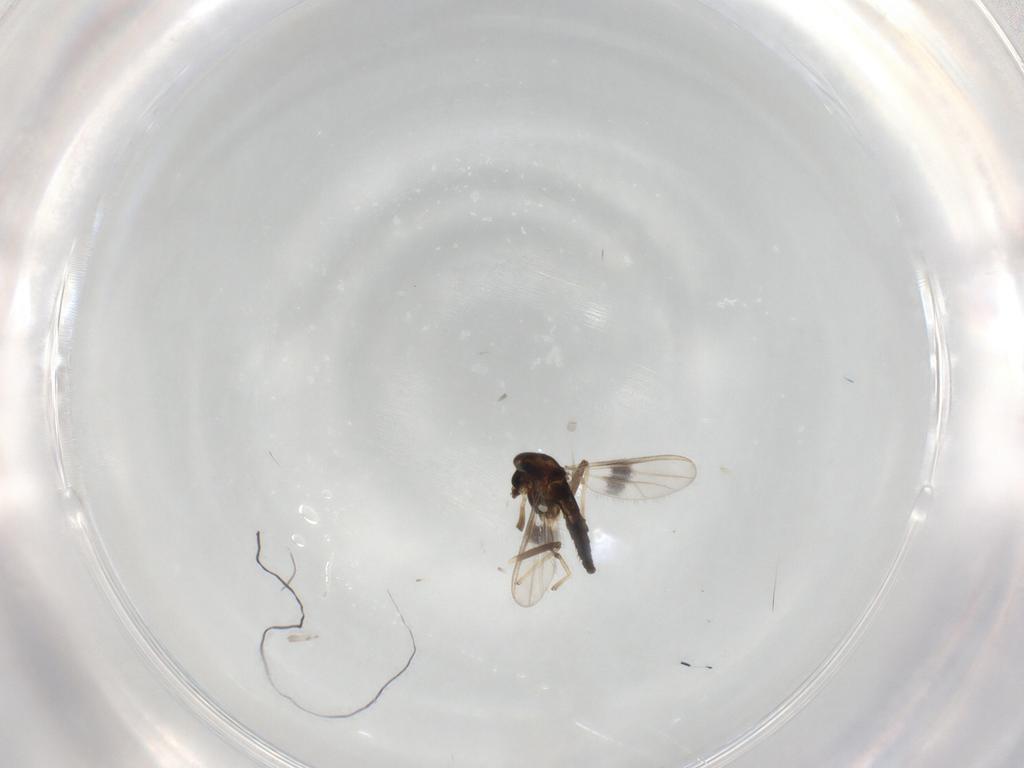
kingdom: Animalia
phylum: Arthropoda
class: Insecta
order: Diptera
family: Chironomidae
